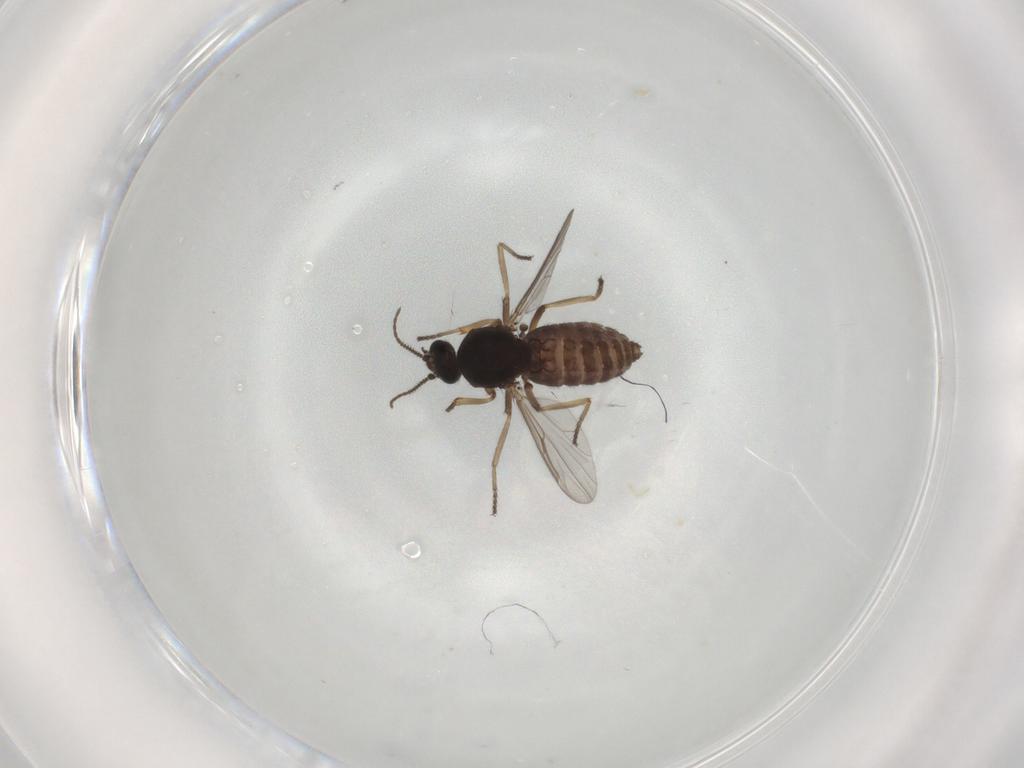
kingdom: Animalia
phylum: Arthropoda
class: Insecta
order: Diptera
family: Ceratopogonidae
